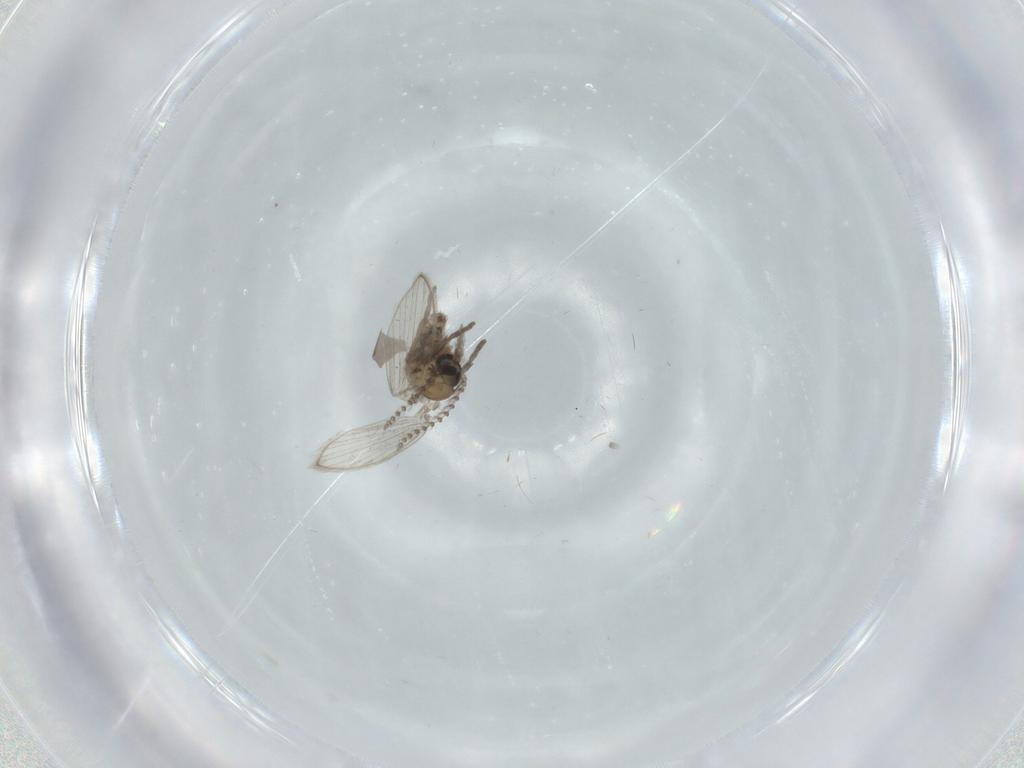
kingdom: Animalia
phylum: Arthropoda
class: Insecta
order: Diptera
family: Psychodidae
